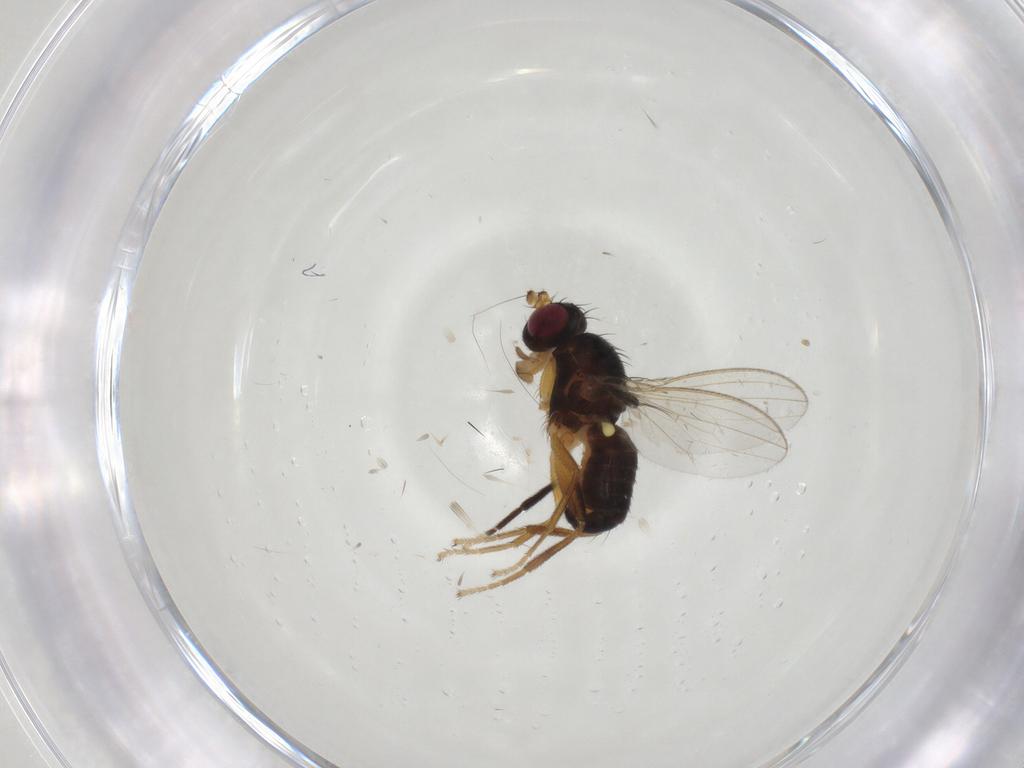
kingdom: Animalia
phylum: Arthropoda
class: Insecta
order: Diptera
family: Cypselosomatidae
